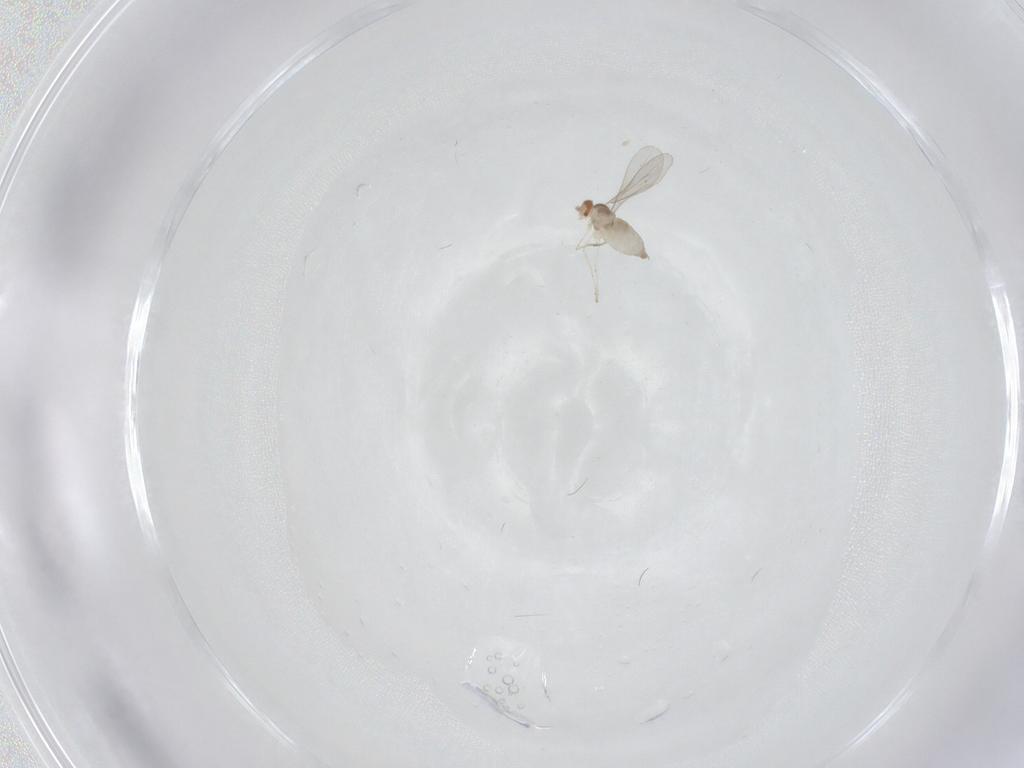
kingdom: Animalia
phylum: Arthropoda
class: Insecta
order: Diptera
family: Cecidomyiidae
